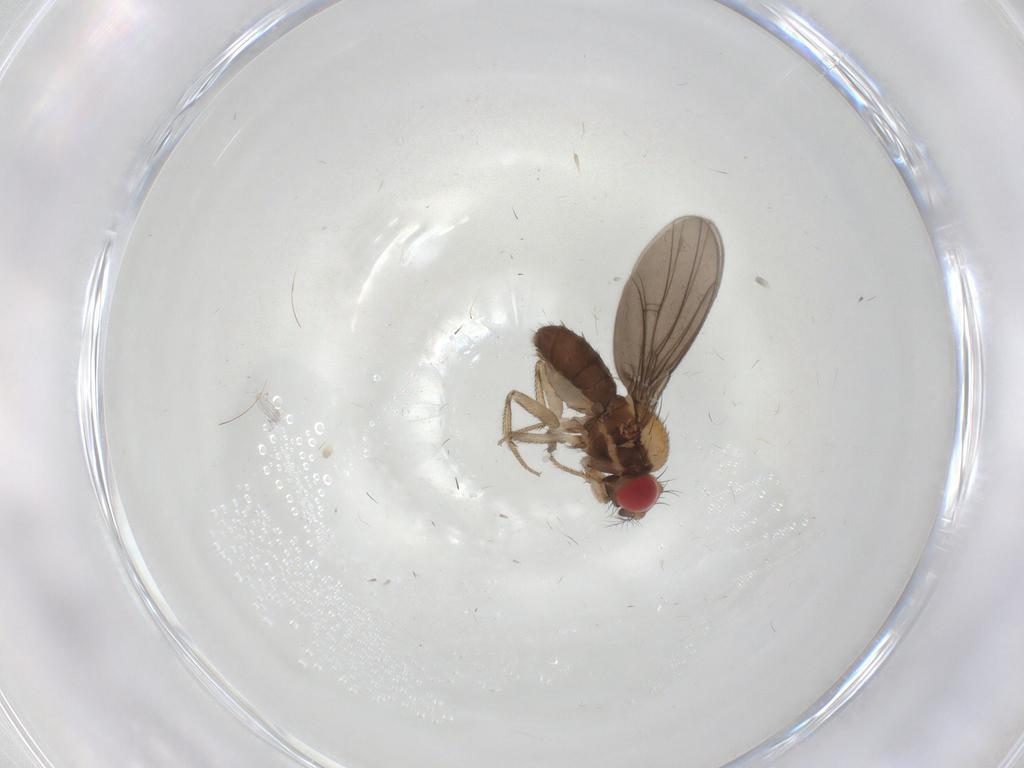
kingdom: Animalia
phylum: Arthropoda
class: Insecta
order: Diptera
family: Drosophilidae
